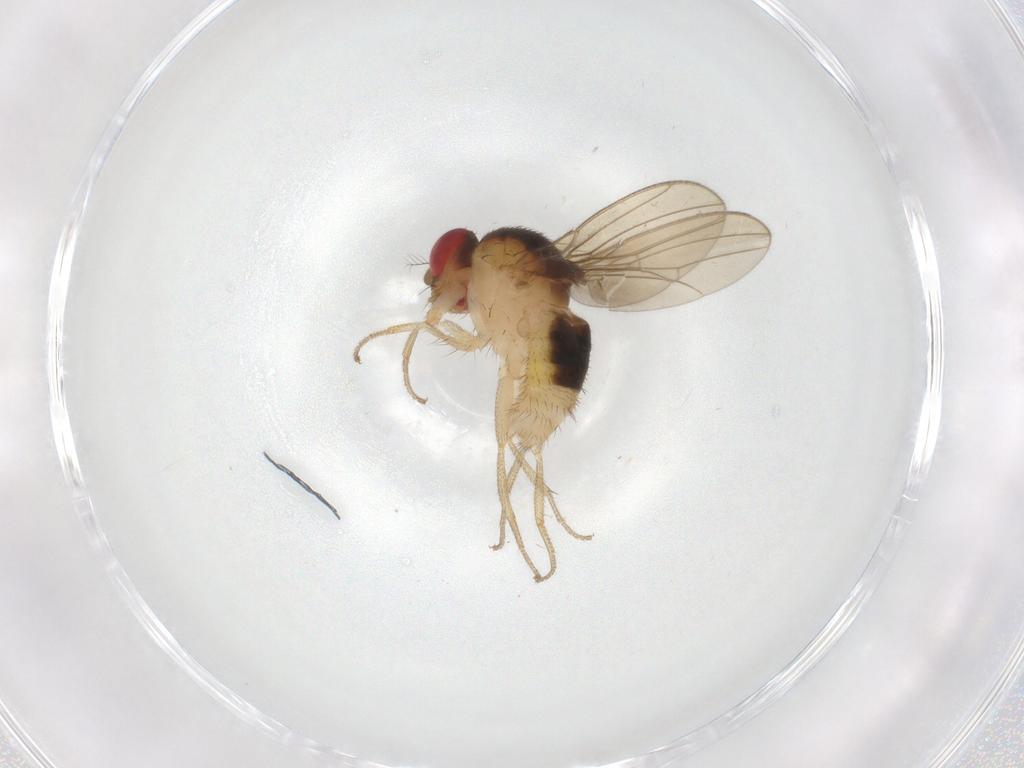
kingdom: Animalia
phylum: Arthropoda
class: Insecta
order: Diptera
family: Drosophilidae
